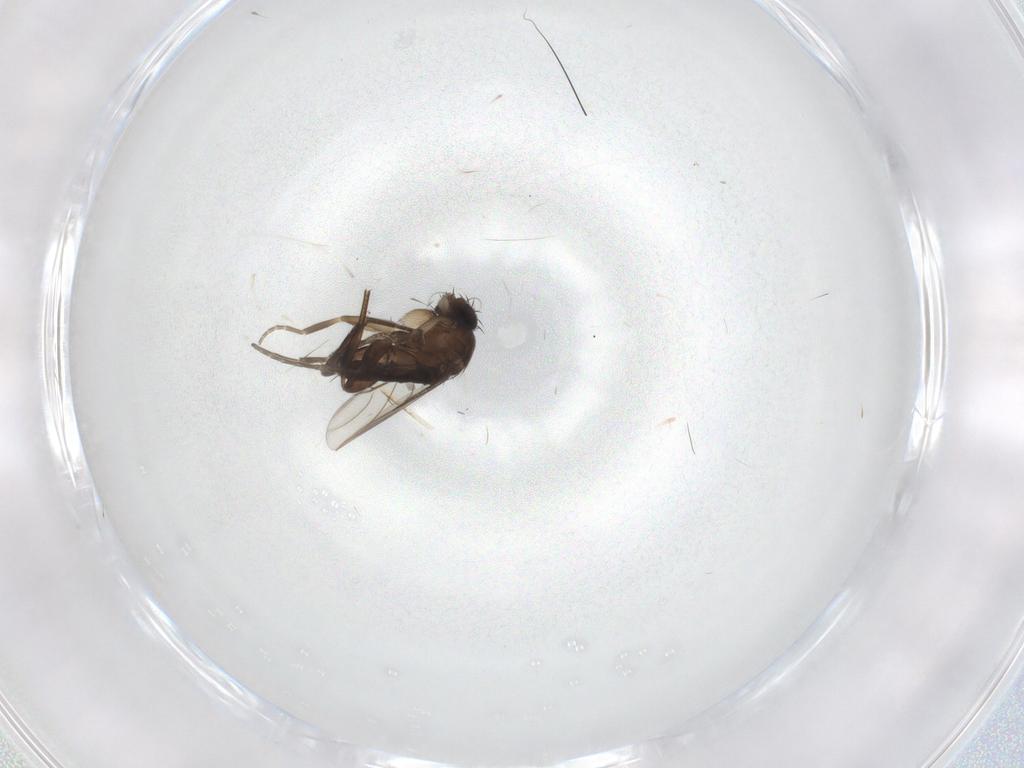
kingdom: Animalia
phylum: Arthropoda
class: Insecta
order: Diptera
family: Phoridae
